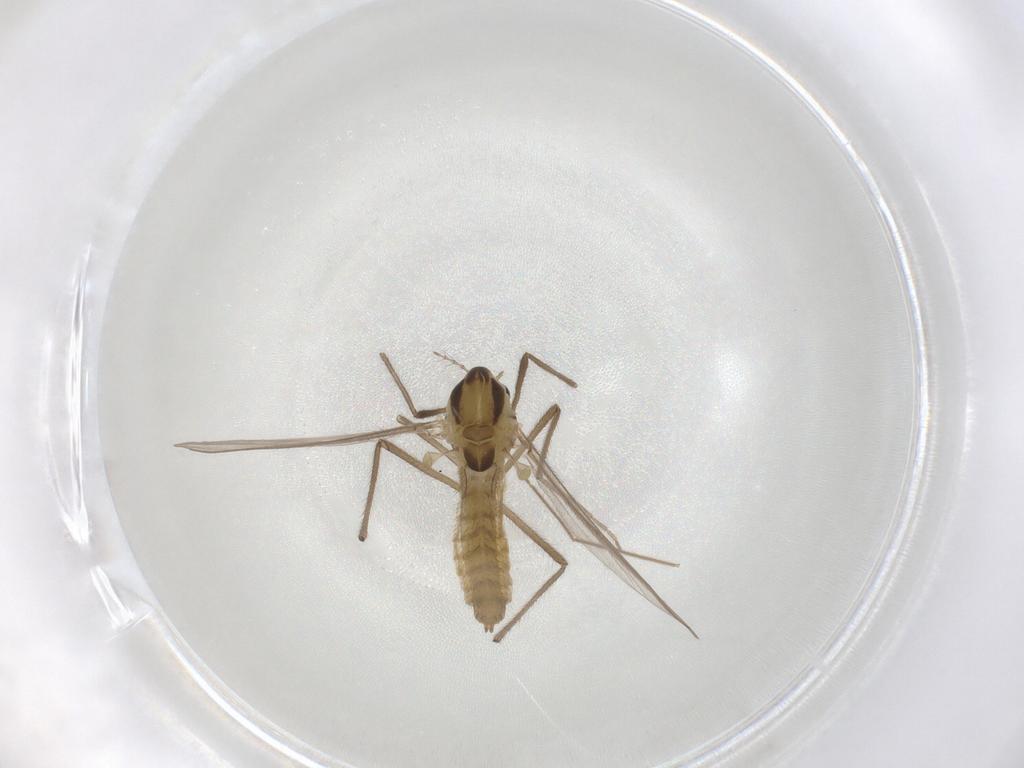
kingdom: Animalia
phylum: Arthropoda
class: Insecta
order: Diptera
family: Chironomidae
